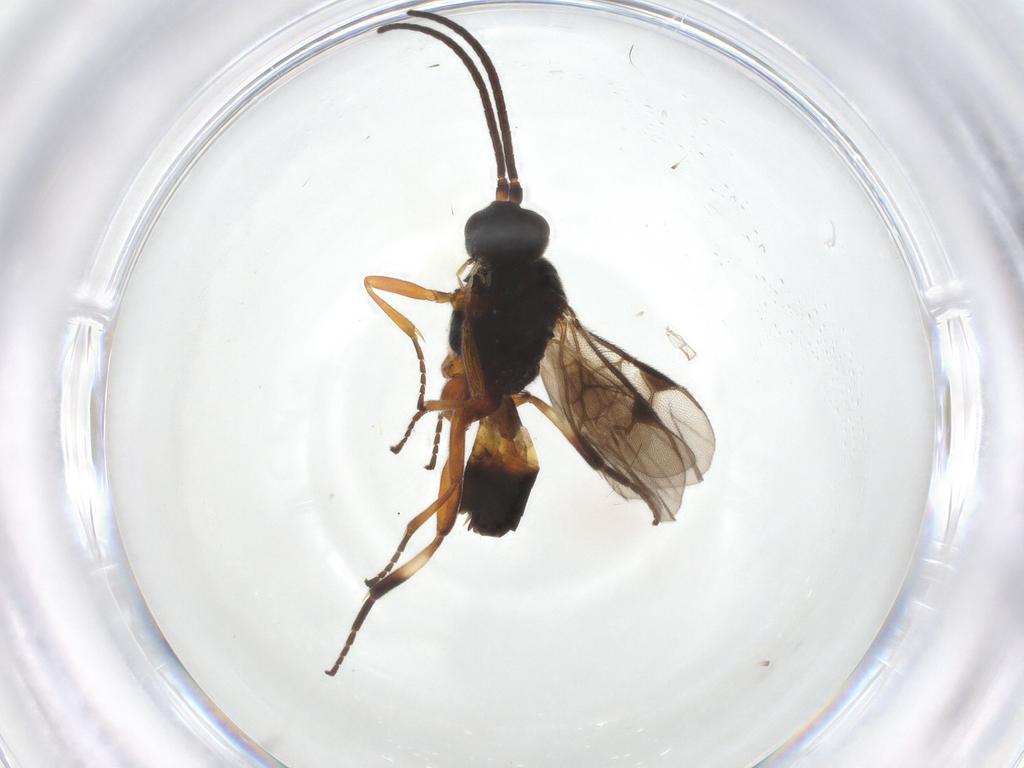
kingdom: Animalia
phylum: Arthropoda
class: Insecta
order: Hymenoptera
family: Braconidae
